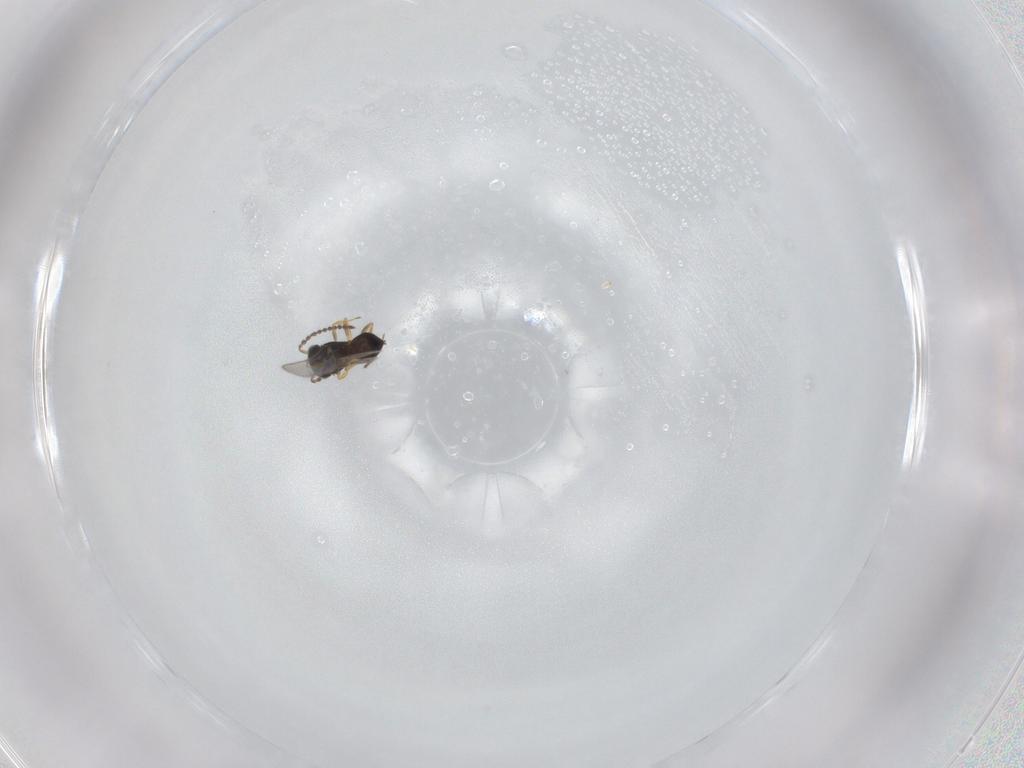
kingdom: Animalia
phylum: Arthropoda
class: Insecta
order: Hymenoptera
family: Scelionidae
